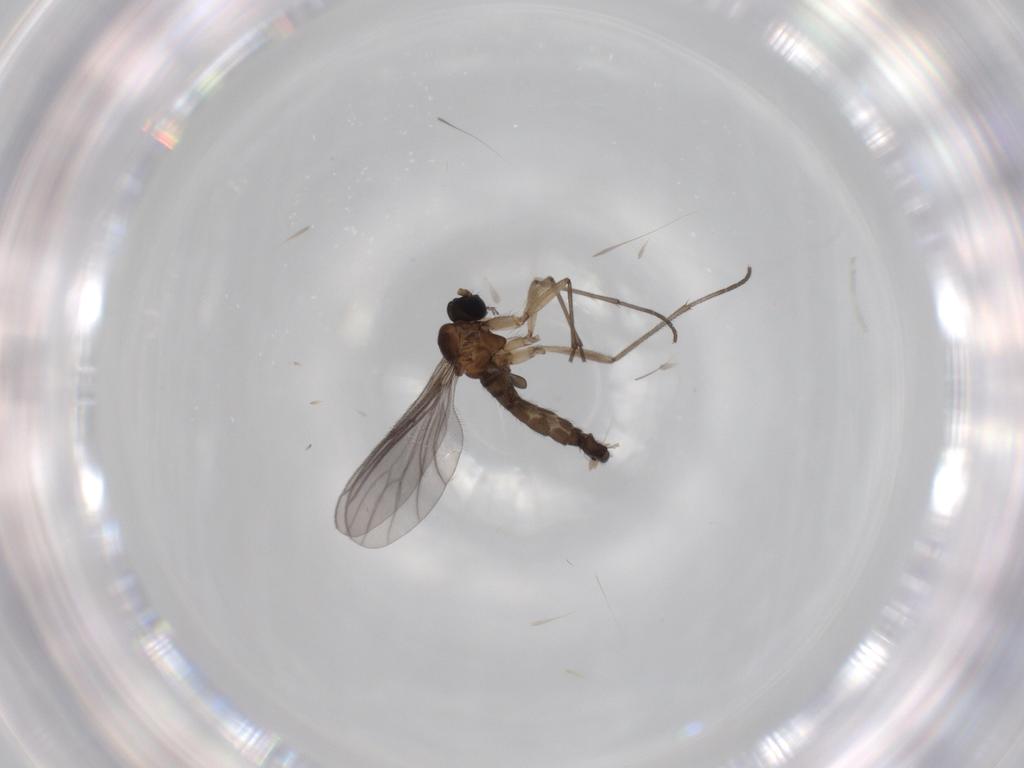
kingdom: Animalia
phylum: Arthropoda
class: Insecta
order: Diptera
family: Sciaridae
